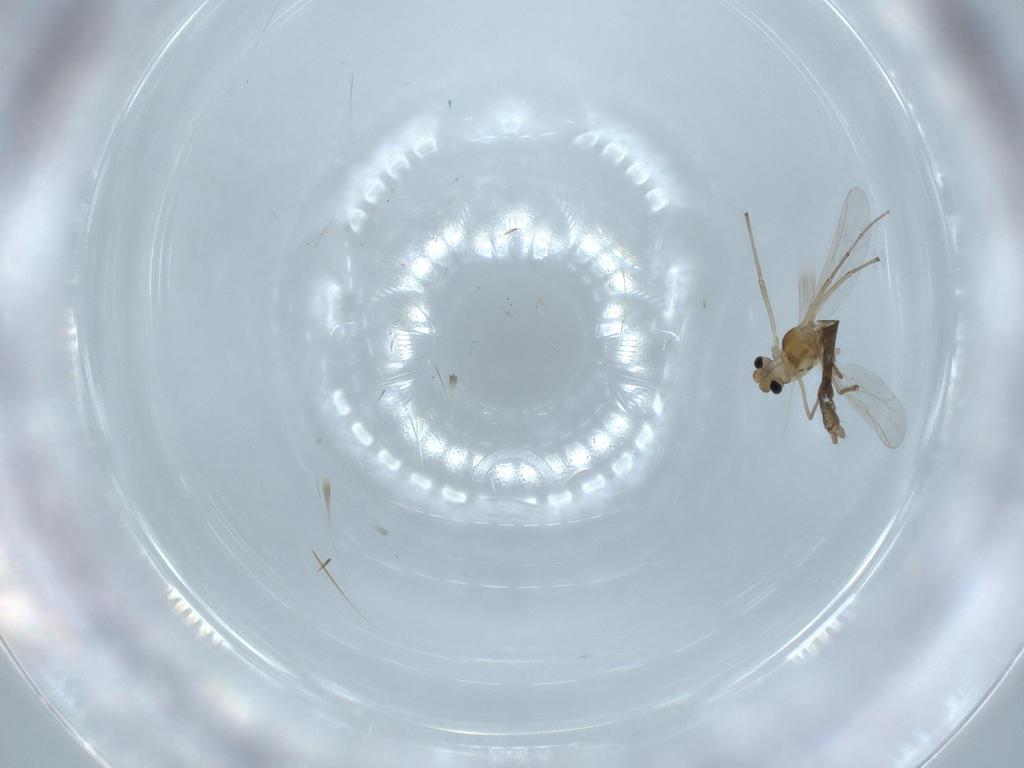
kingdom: Animalia
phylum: Arthropoda
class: Insecta
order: Diptera
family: Chironomidae
